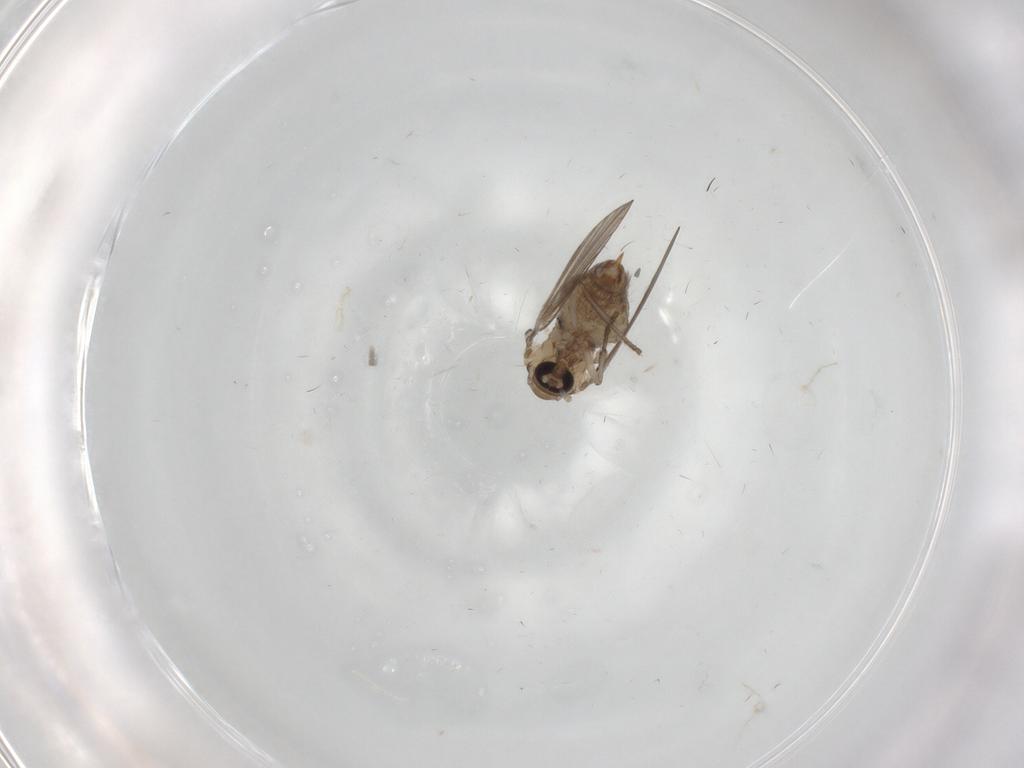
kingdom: Animalia
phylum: Arthropoda
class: Insecta
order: Diptera
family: Psychodidae
